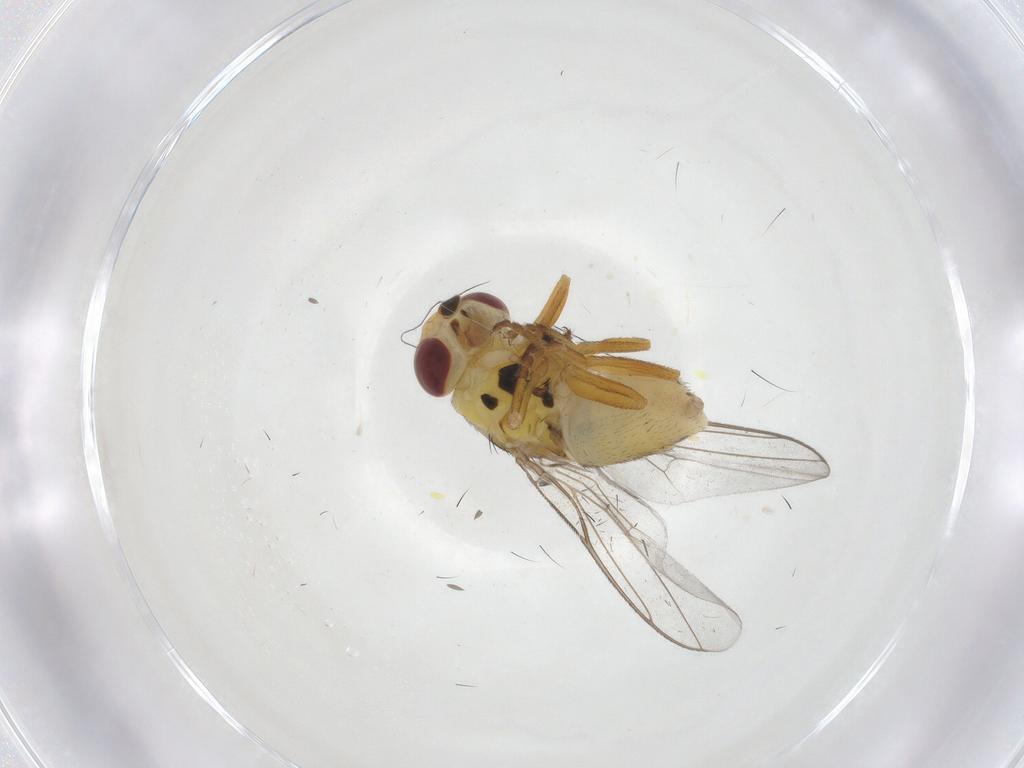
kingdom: Animalia
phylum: Arthropoda
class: Insecta
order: Diptera
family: Chloropidae
